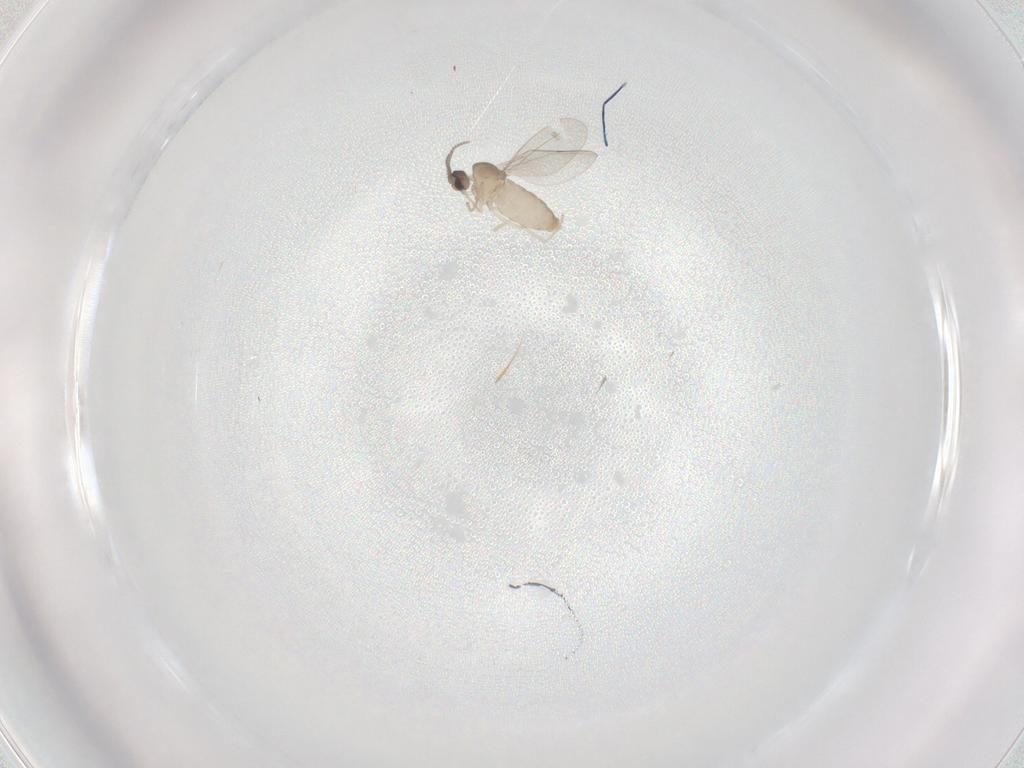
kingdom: Animalia
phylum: Arthropoda
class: Insecta
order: Diptera
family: Cecidomyiidae
